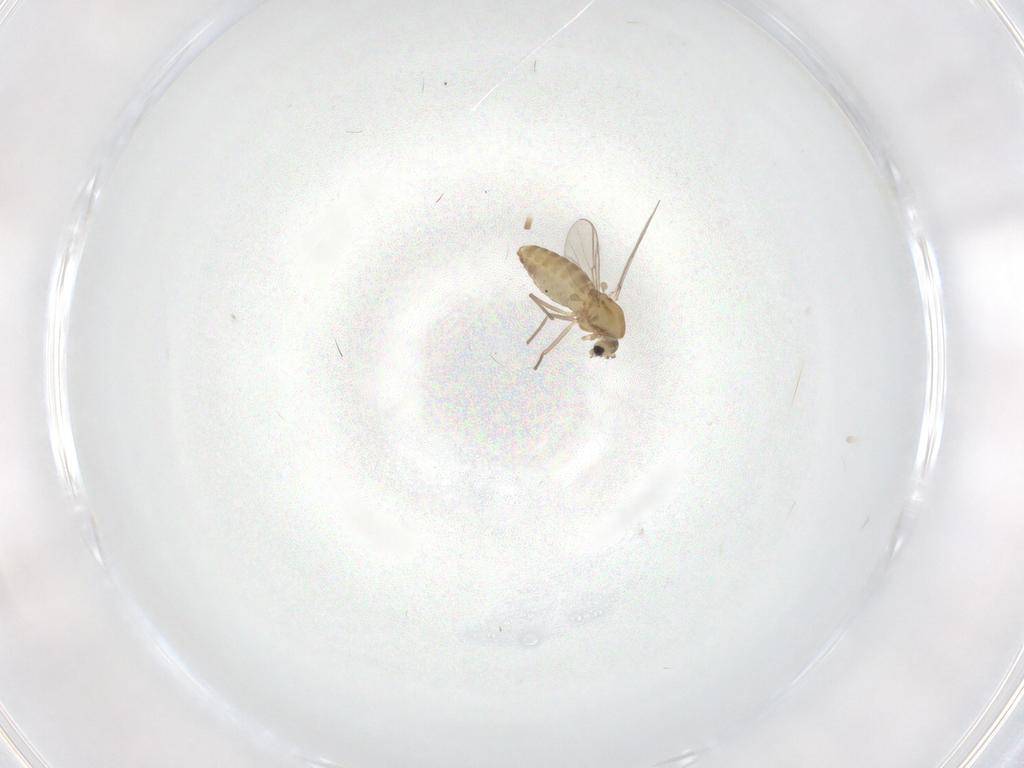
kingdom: Animalia
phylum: Arthropoda
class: Insecta
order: Diptera
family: Chironomidae
